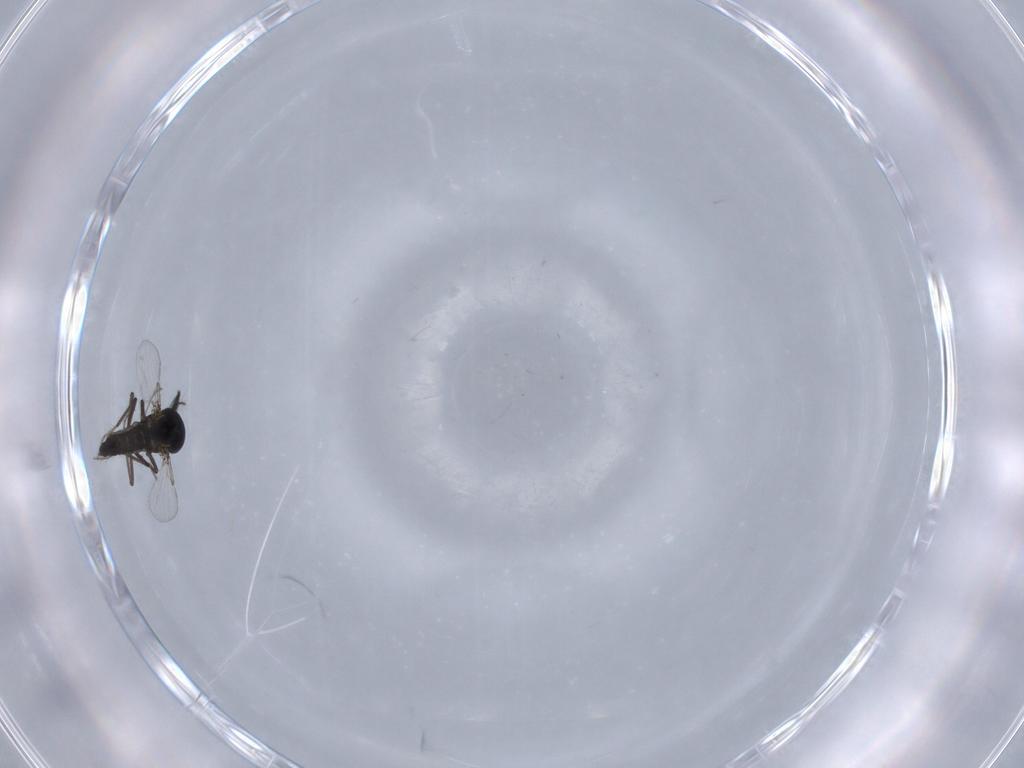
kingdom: Animalia
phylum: Arthropoda
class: Insecta
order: Diptera
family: Ceratopogonidae
